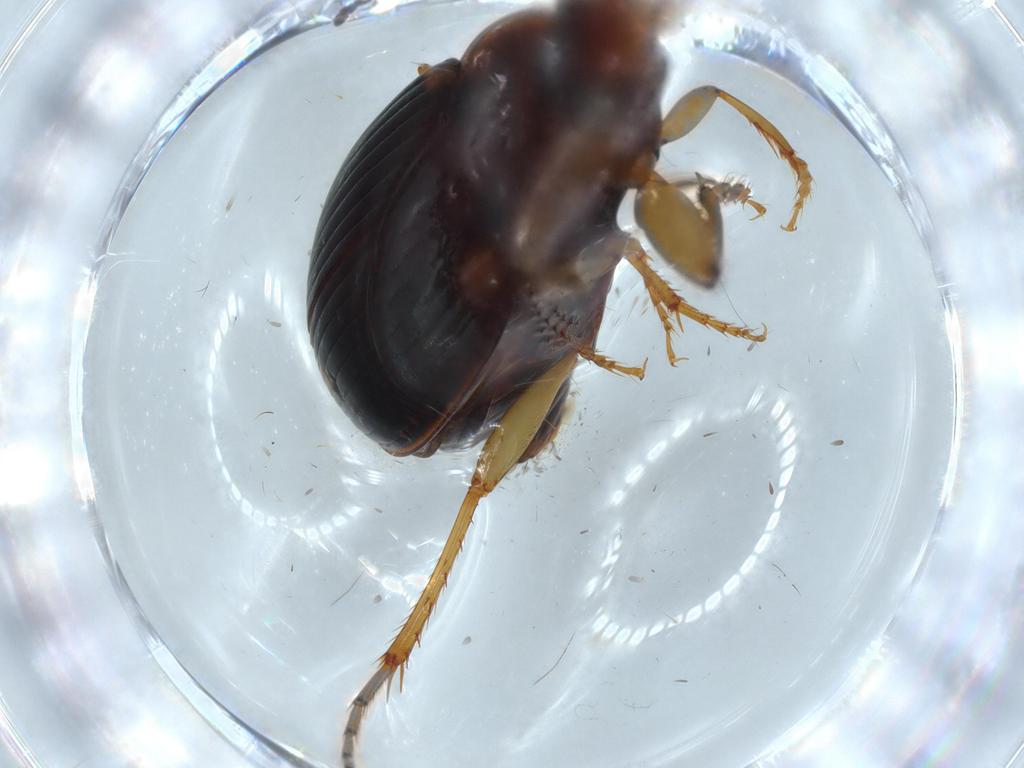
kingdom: Animalia
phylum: Arthropoda
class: Insecta
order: Coleoptera
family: Carabidae
